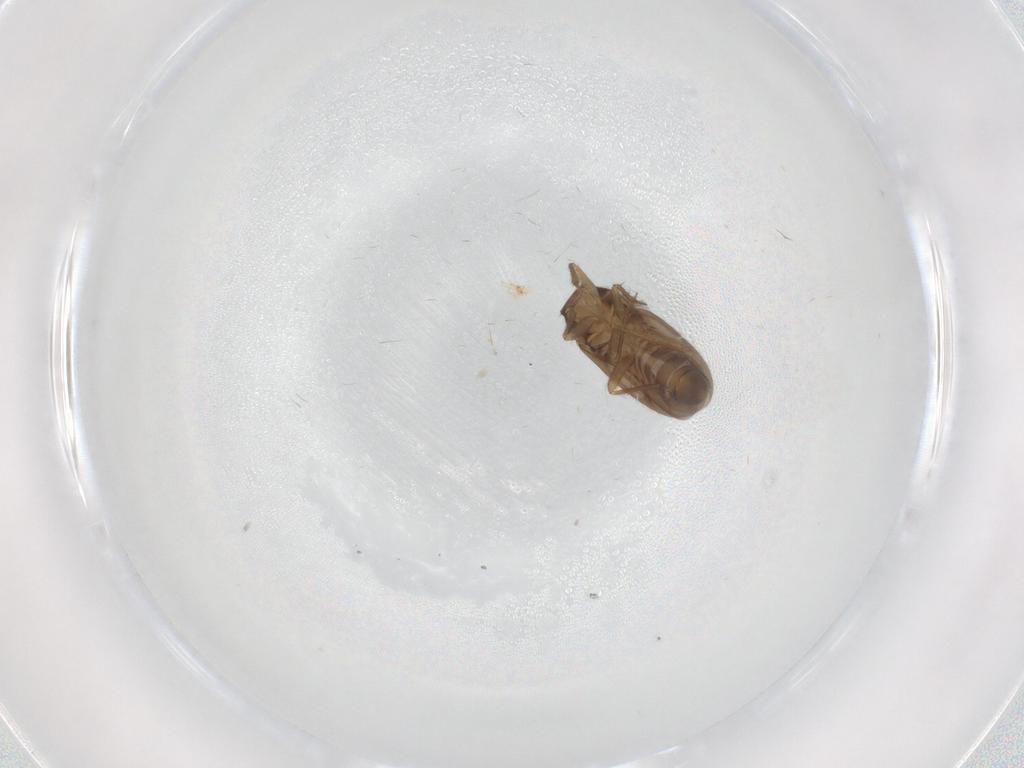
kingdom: Animalia
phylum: Arthropoda
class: Insecta
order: Hemiptera
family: Ceratocombidae
